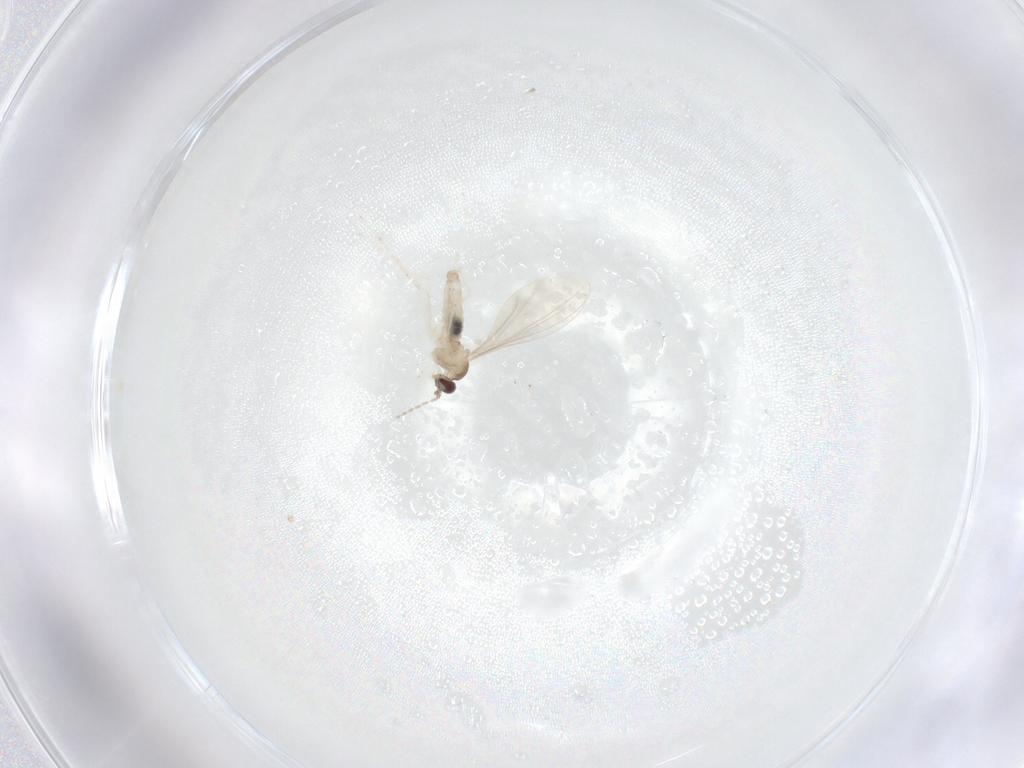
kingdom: Animalia
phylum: Arthropoda
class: Insecta
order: Diptera
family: Cecidomyiidae
